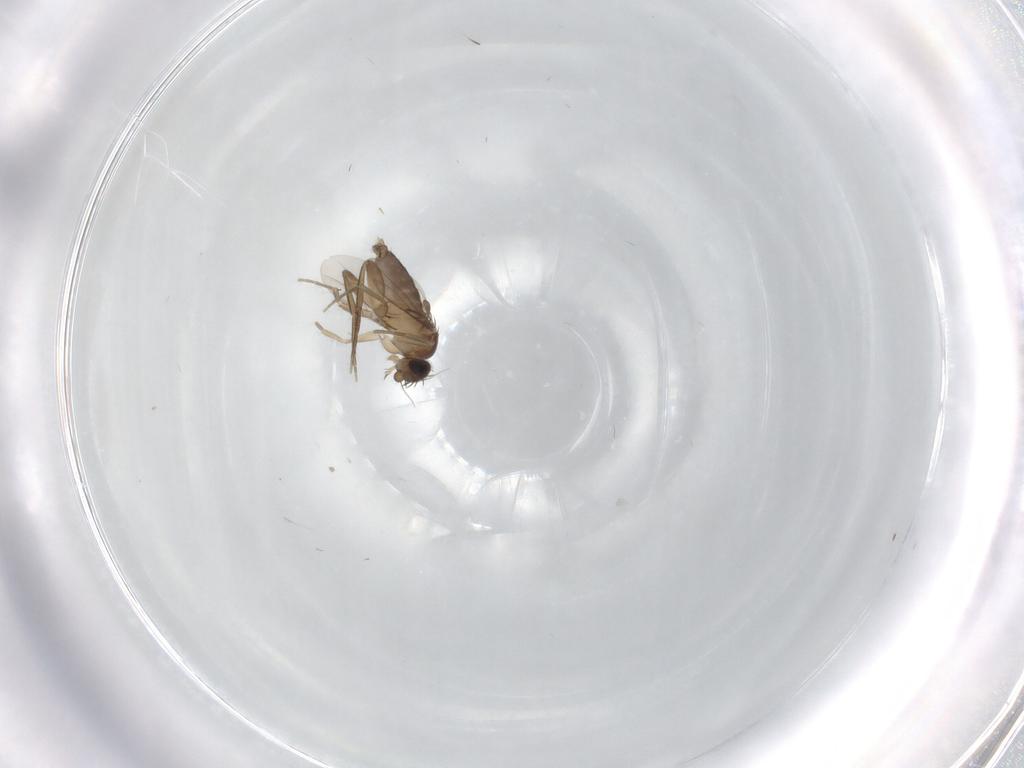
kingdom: Animalia
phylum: Arthropoda
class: Insecta
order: Diptera
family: Phoridae
